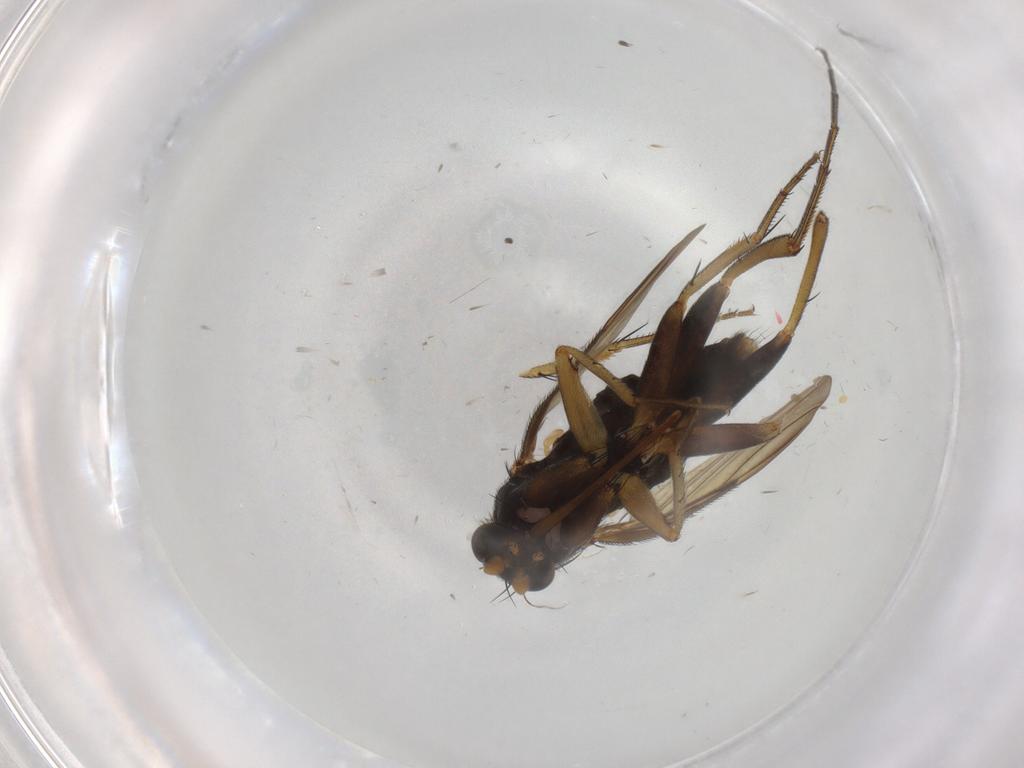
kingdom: Animalia
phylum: Arthropoda
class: Insecta
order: Diptera
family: Phoridae
